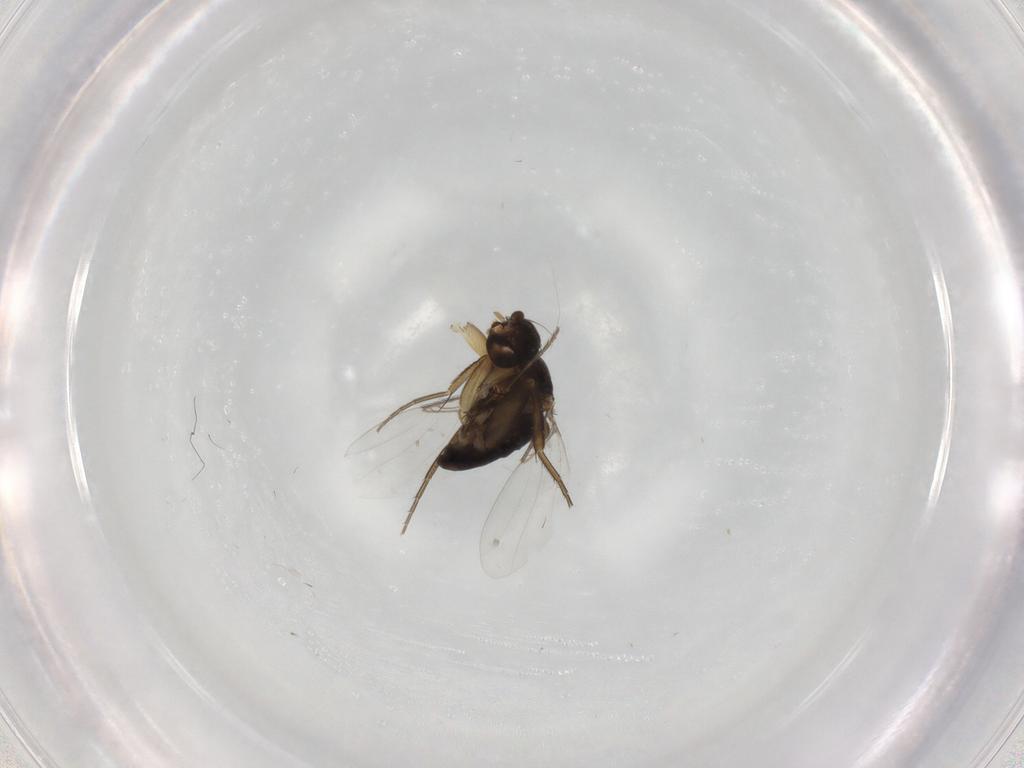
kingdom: Animalia
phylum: Arthropoda
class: Insecta
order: Diptera
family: Phoridae
